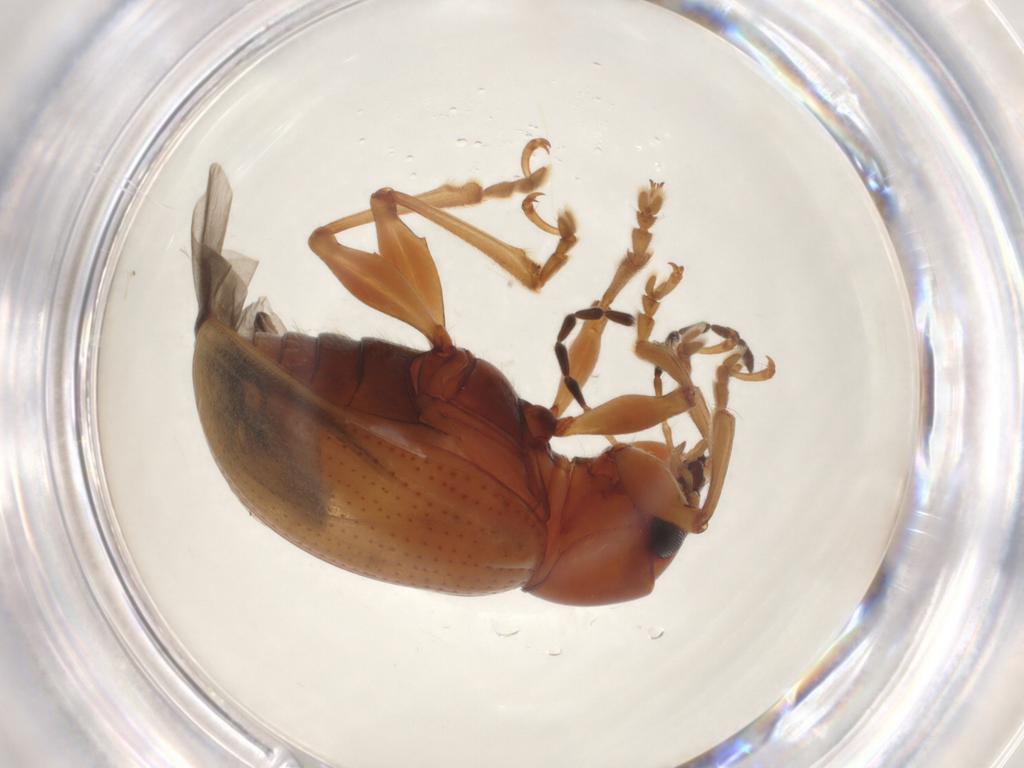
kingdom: Animalia
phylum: Arthropoda
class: Insecta
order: Coleoptera
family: Chrysomelidae
